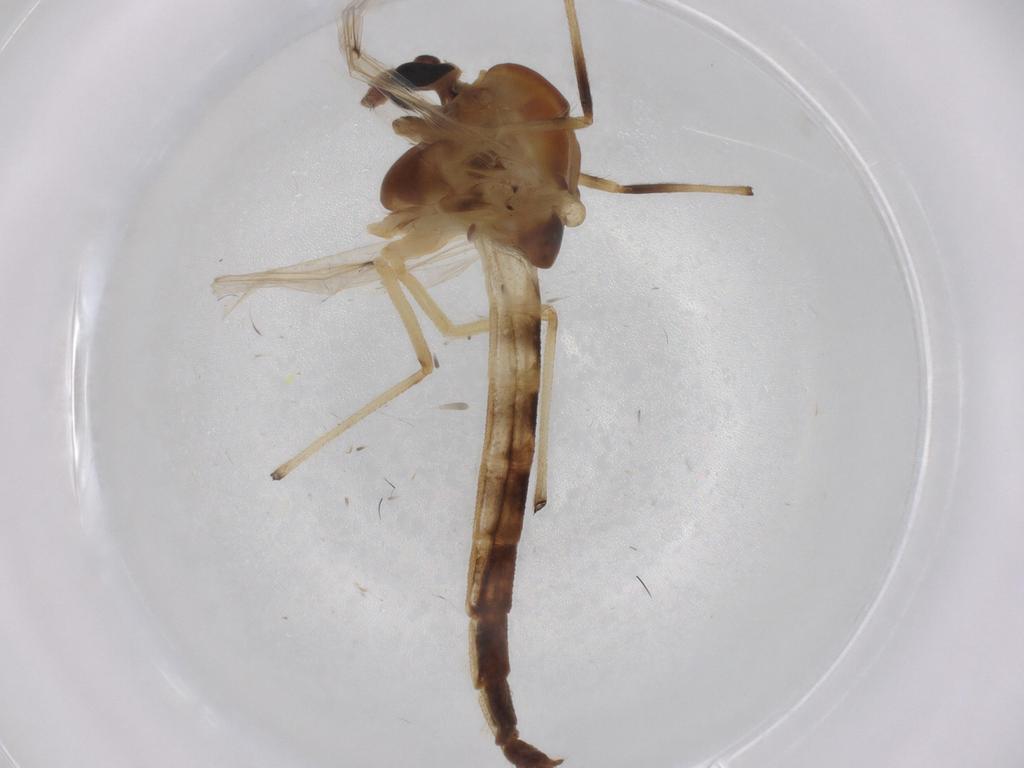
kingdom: Animalia
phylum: Arthropoda
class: Insecta
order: Diptera
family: Chironomidae
